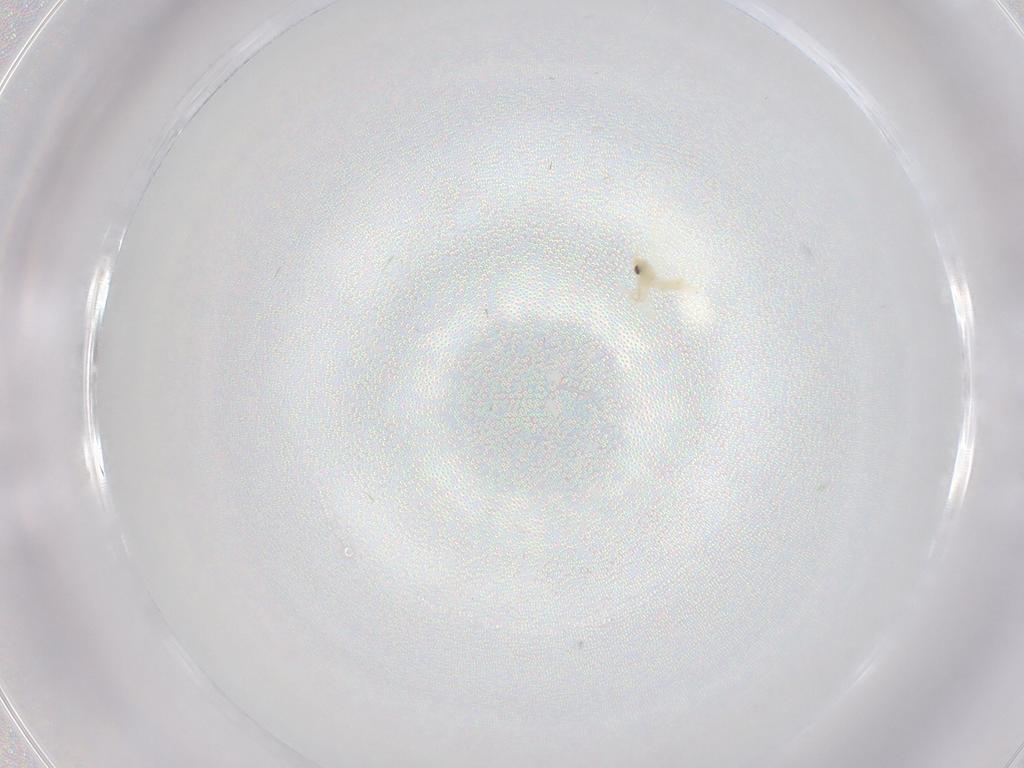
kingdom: Animalia
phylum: Arthropoda
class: Insecta
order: Hemiptera
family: Aleyrodidae
